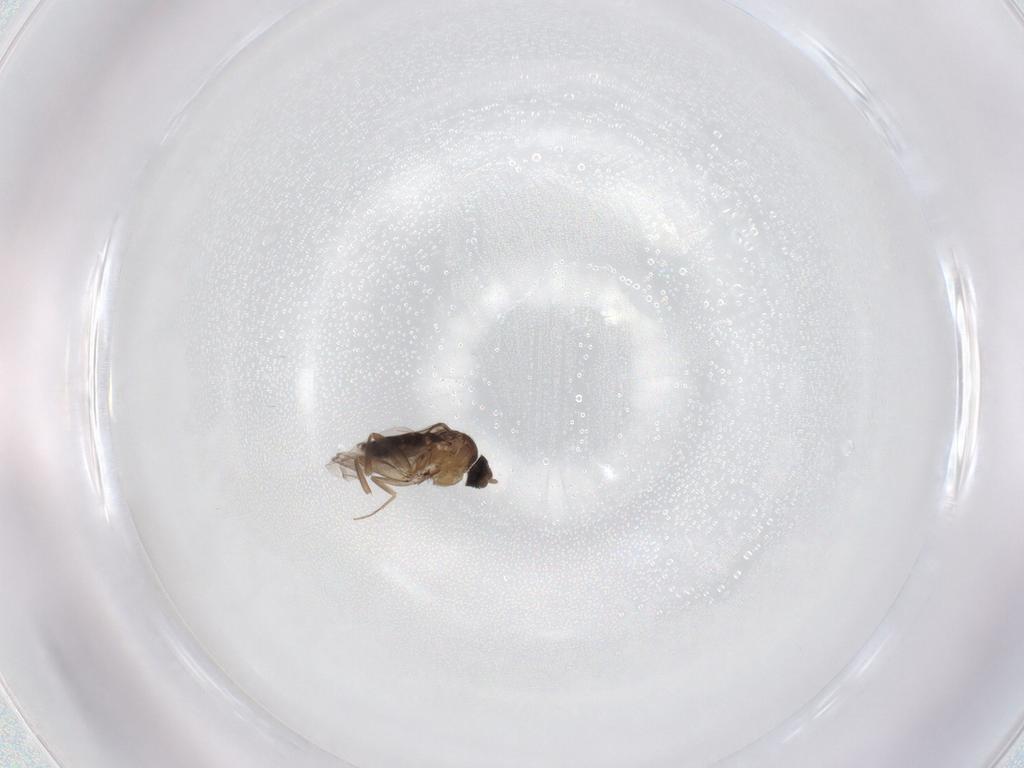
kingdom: Animalia
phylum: Arthropoda
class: Insecta
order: Diptera
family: Phoridae
